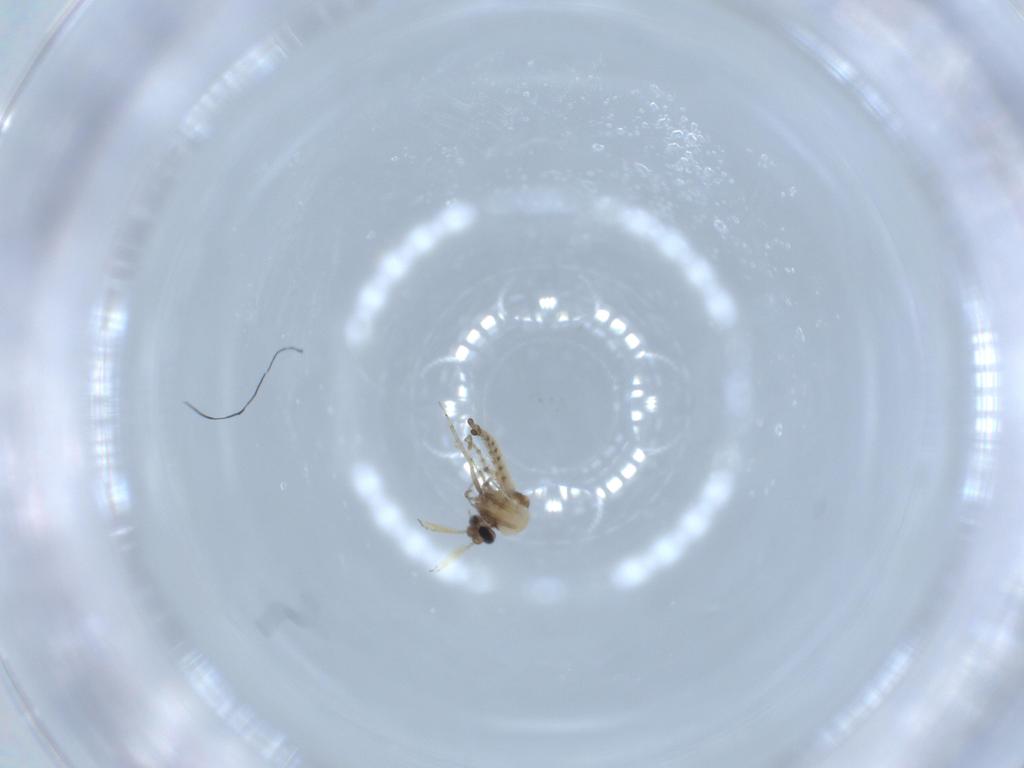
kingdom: Animalia
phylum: Arthropoda
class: Insecta
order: Diptera
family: Ceratopogonidae
